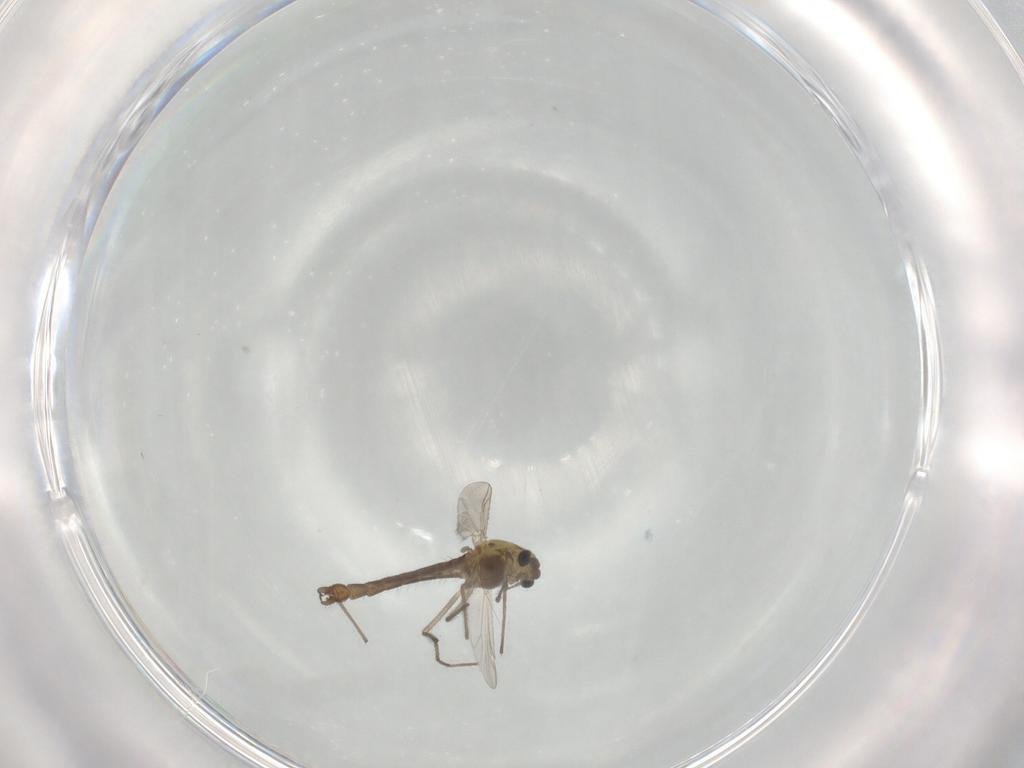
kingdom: Animalia
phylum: Arthropoda
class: Insecta
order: Diptera
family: Chironomidae
